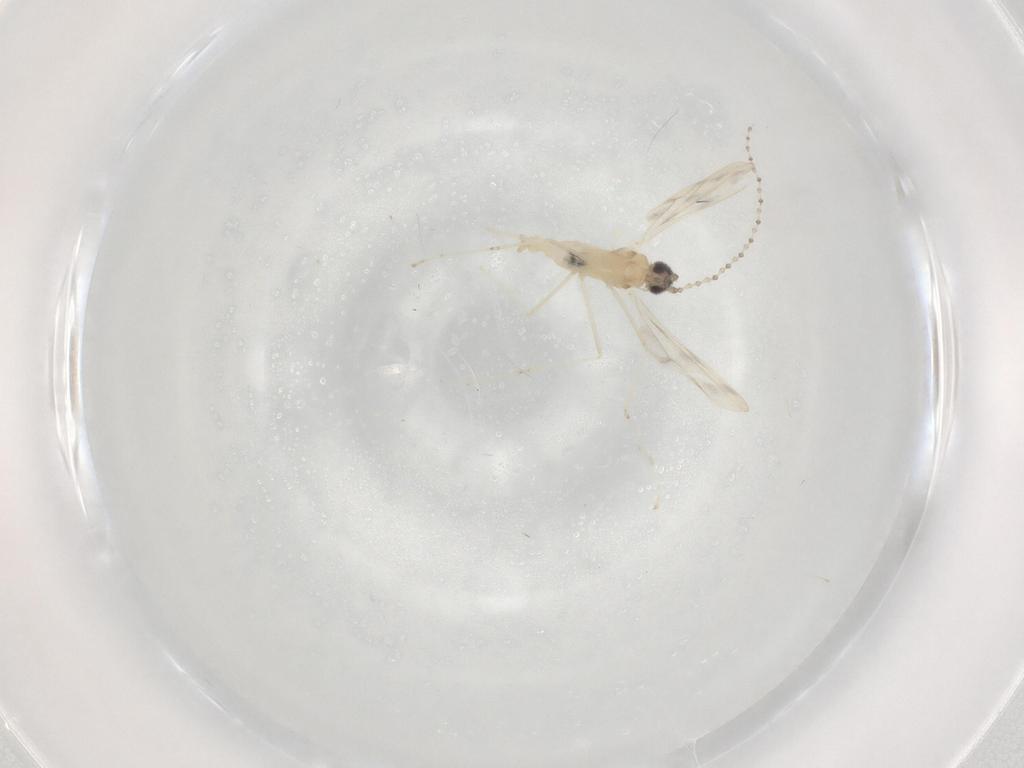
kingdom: Animalia
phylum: Arthropoda
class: Insecta
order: Diptera
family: Cecidomyiidae
